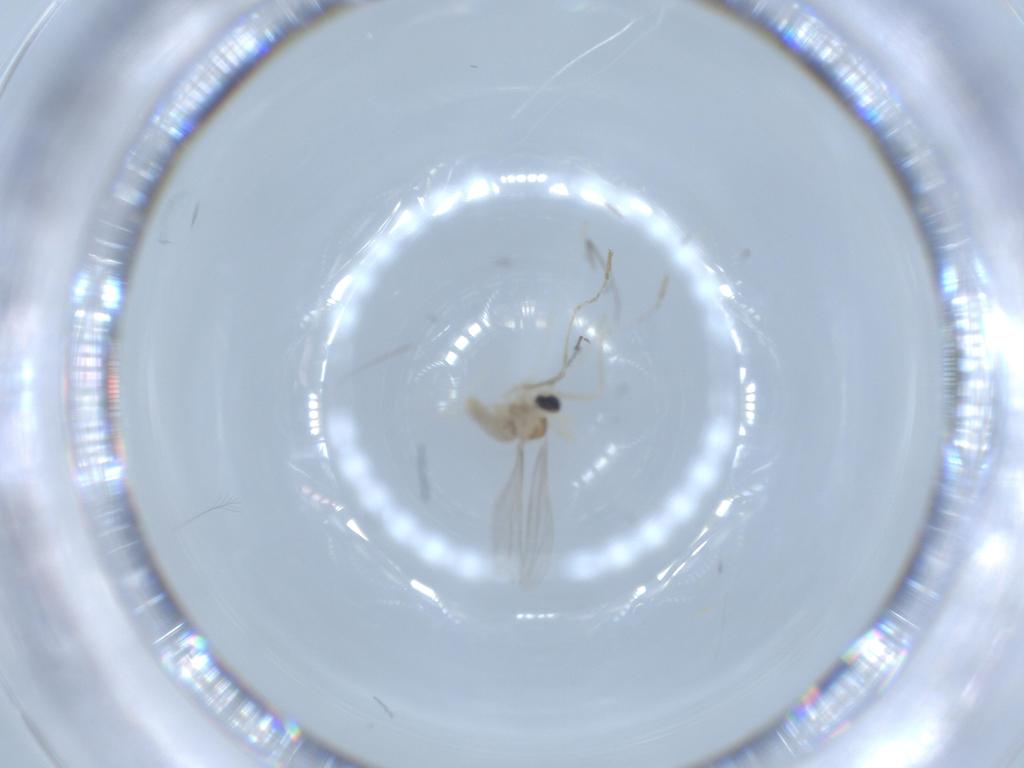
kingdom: Animalia
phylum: Arthropoda
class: Insecta
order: Diptera
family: Cecidomyiidae
